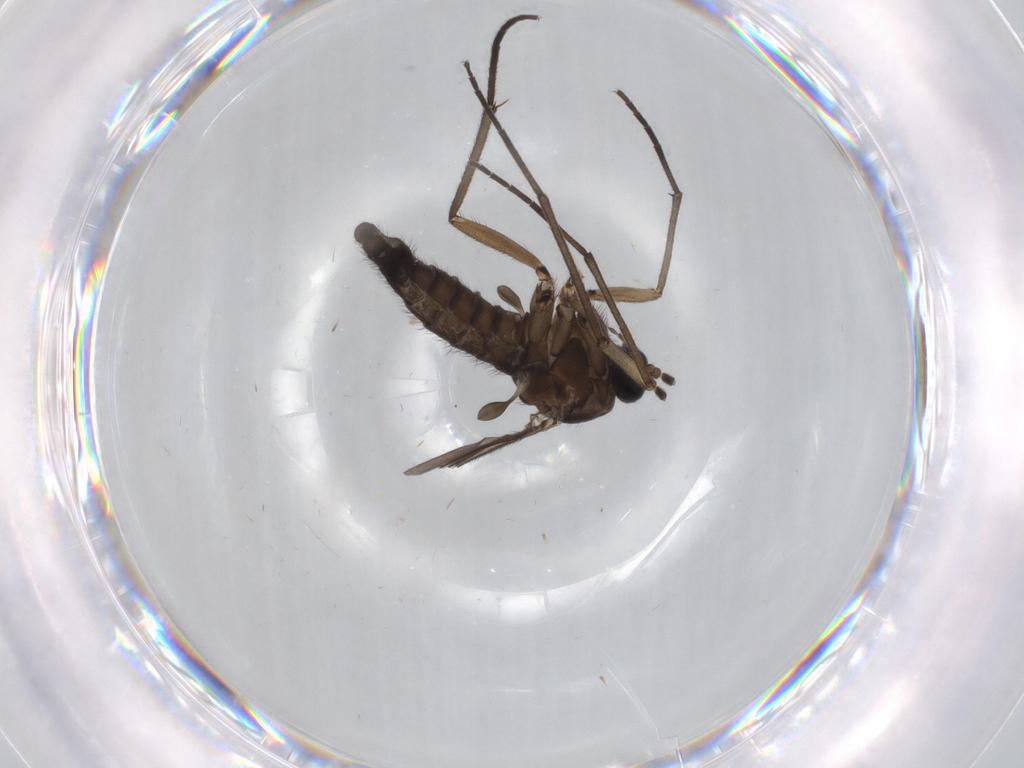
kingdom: Animalia
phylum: Arthropoda
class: Insecta
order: Diptera
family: Sciaridae
